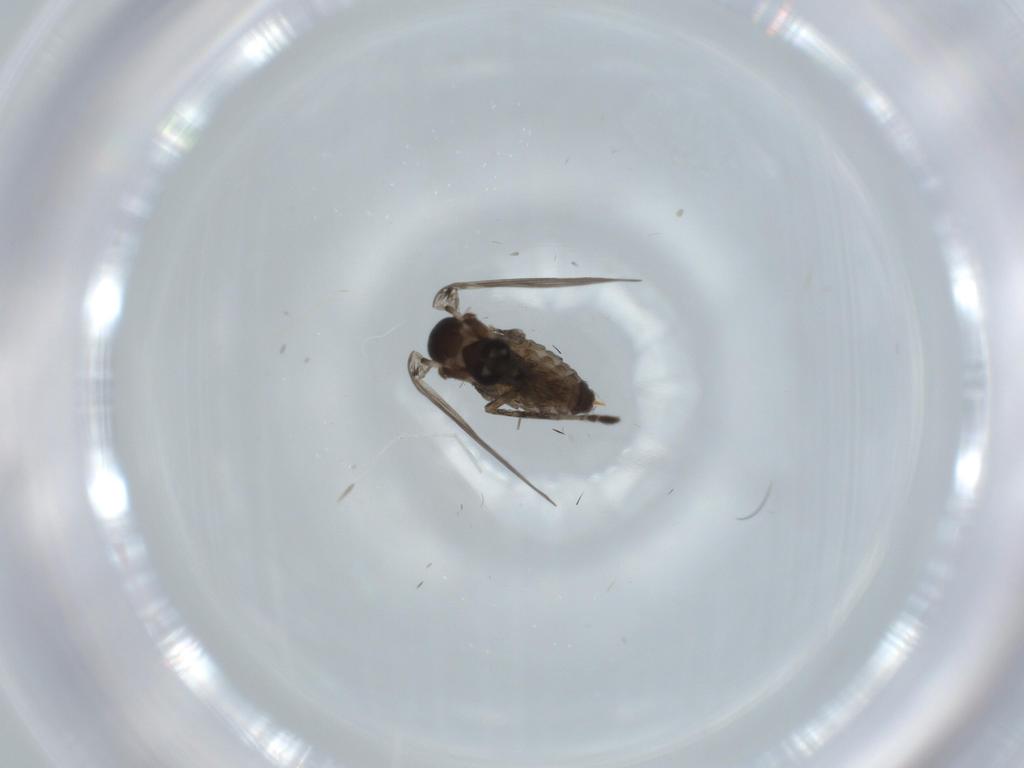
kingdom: Animalia
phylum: Arthropoda
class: Insecta
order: Diptera
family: Psychodidae
